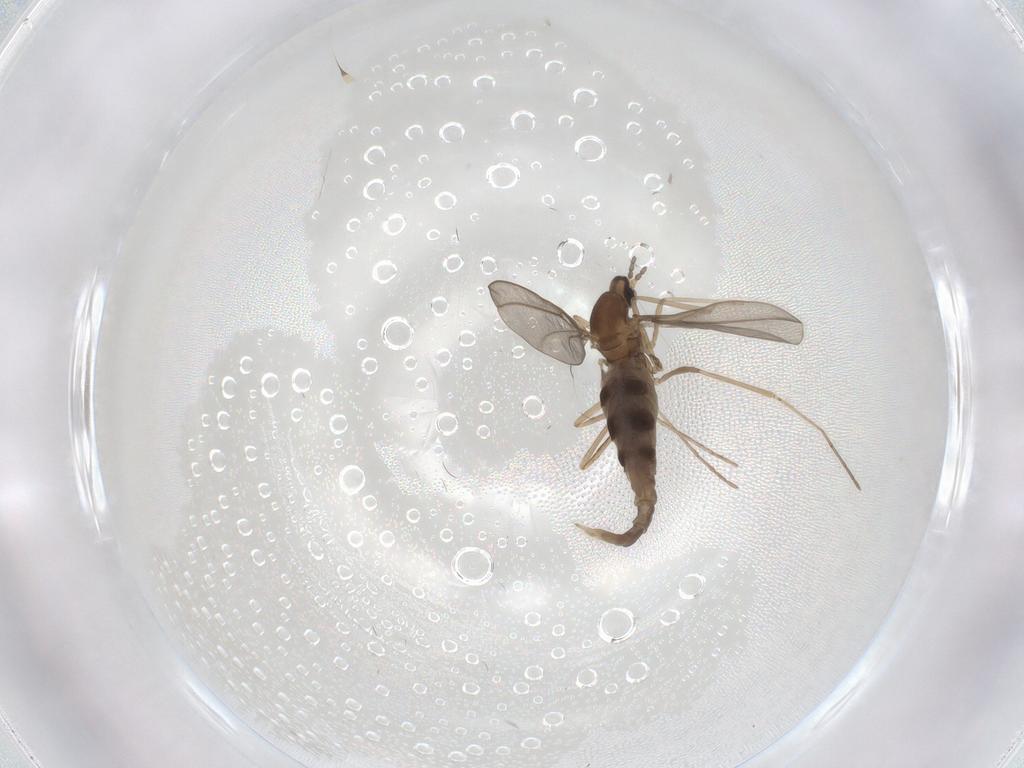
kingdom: Animalia
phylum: Arthropoda
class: Insecta
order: Diptera
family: Cecidomyiidae
